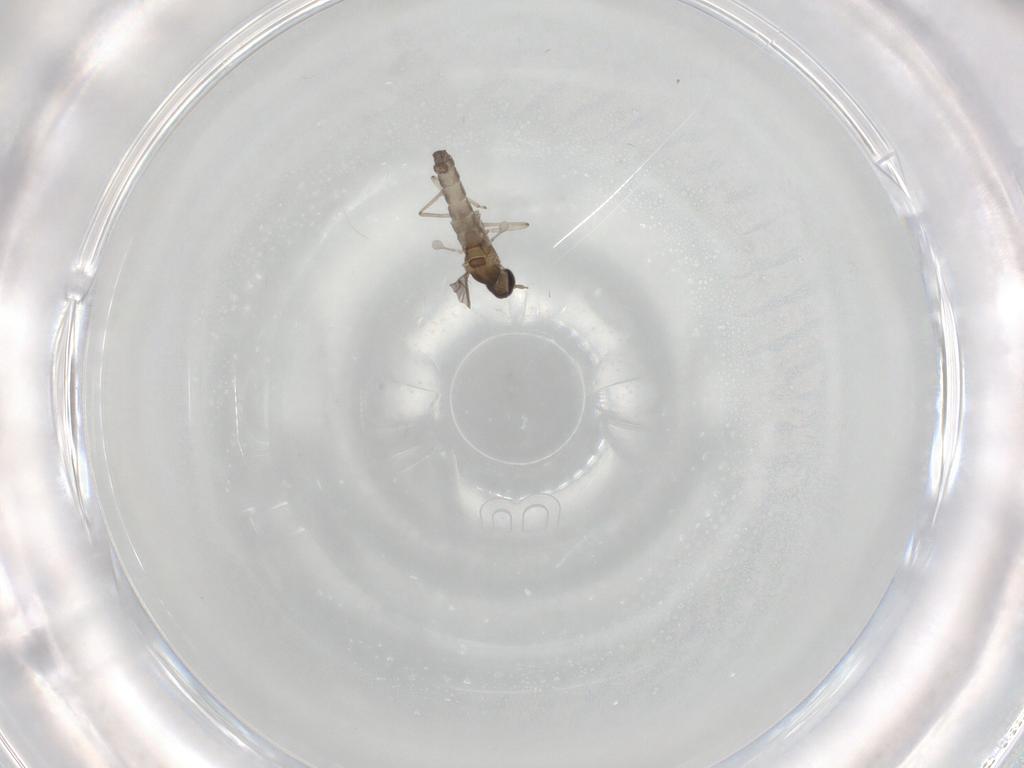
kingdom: Animalia
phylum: Arthropoda
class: Insecta
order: Diptera
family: Cecidomyiidae
